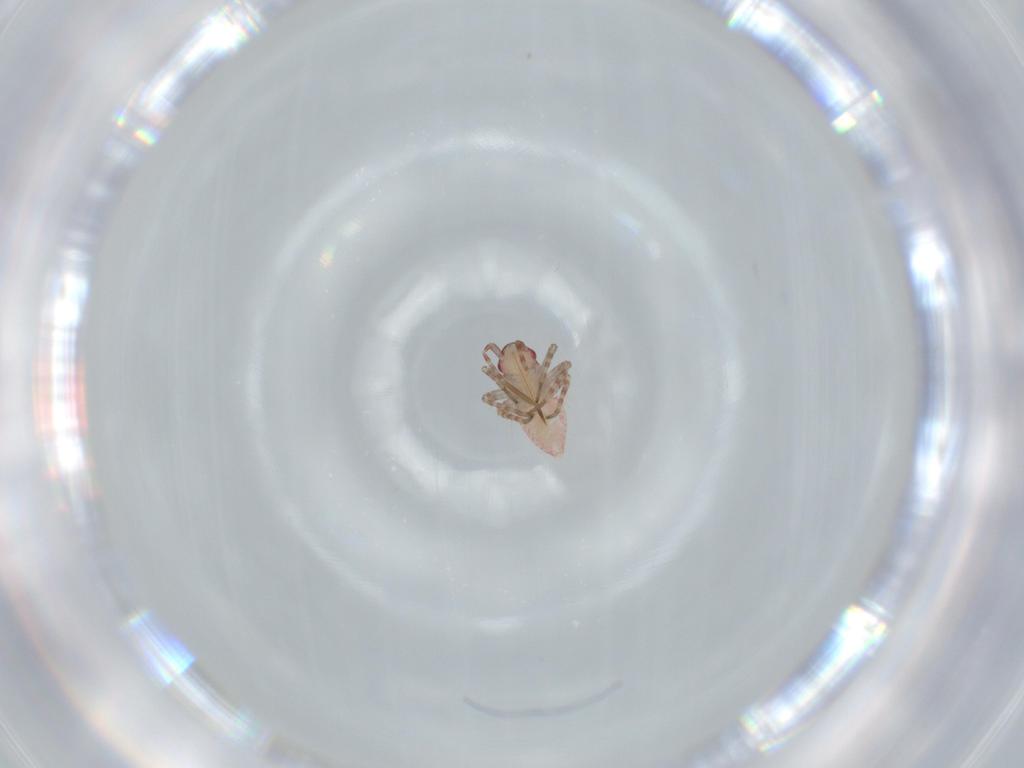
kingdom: Animalia
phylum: Arthropoda
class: Insecta
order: Hemiptera
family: Miridae
